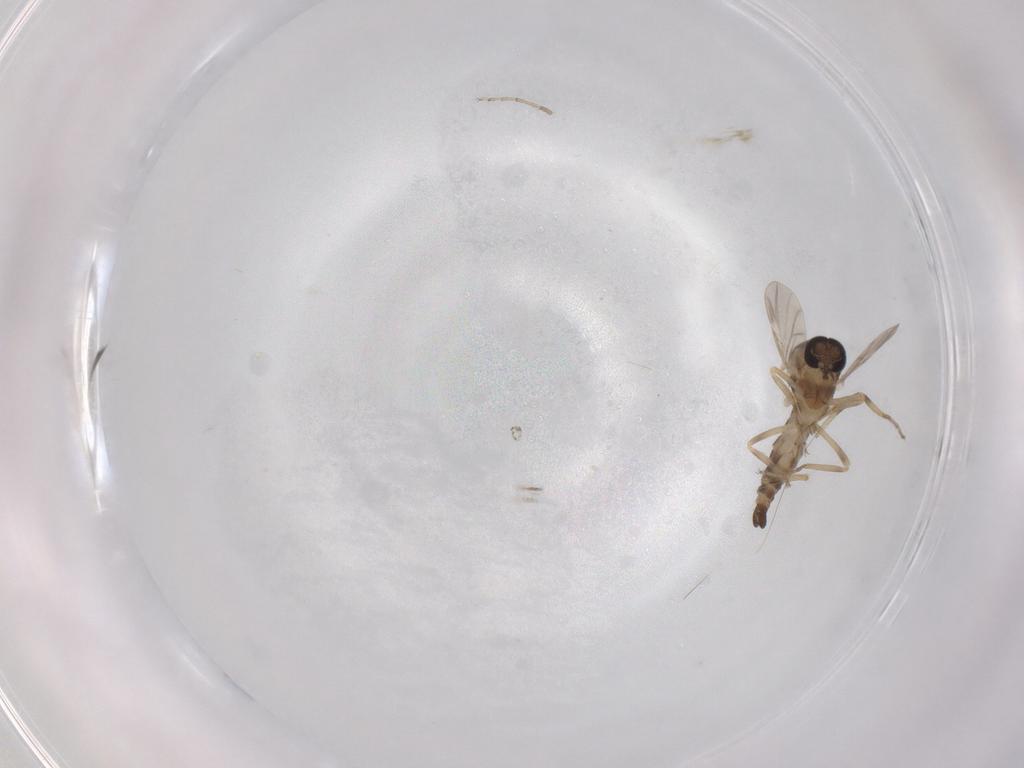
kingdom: Animalia
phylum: Arthropoda
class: Insecta
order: Diptera
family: Ceratopogonidae
